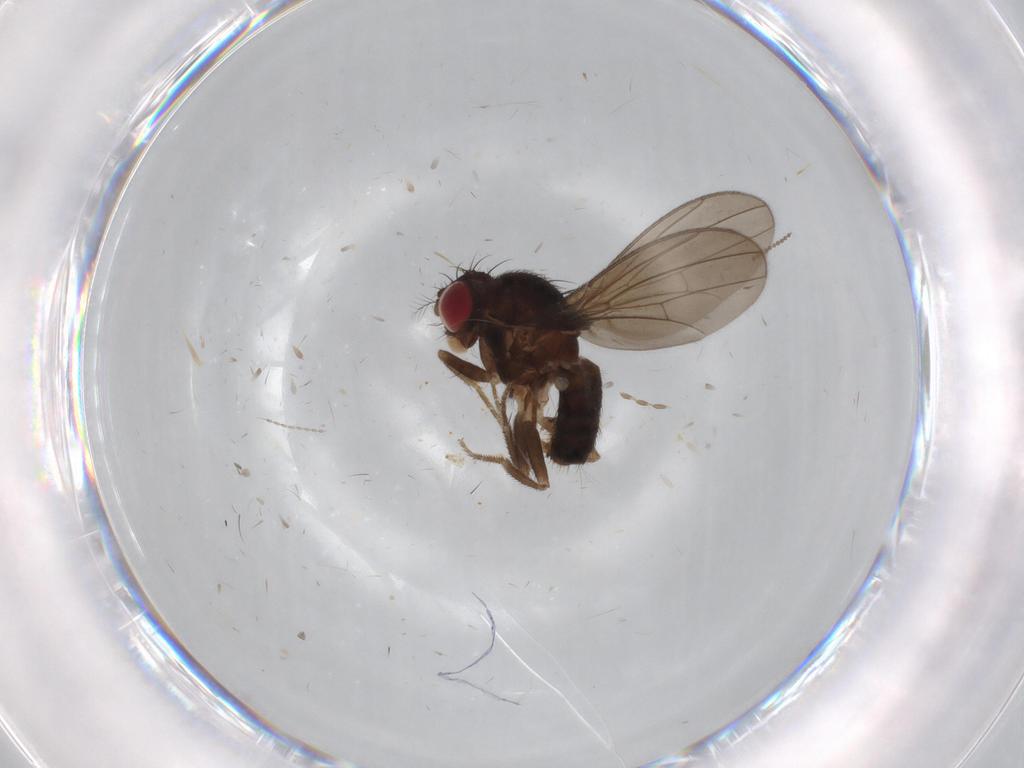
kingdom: Animalia
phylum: Arthropoda
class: Insecta
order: Diptera
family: Drosophilidae
